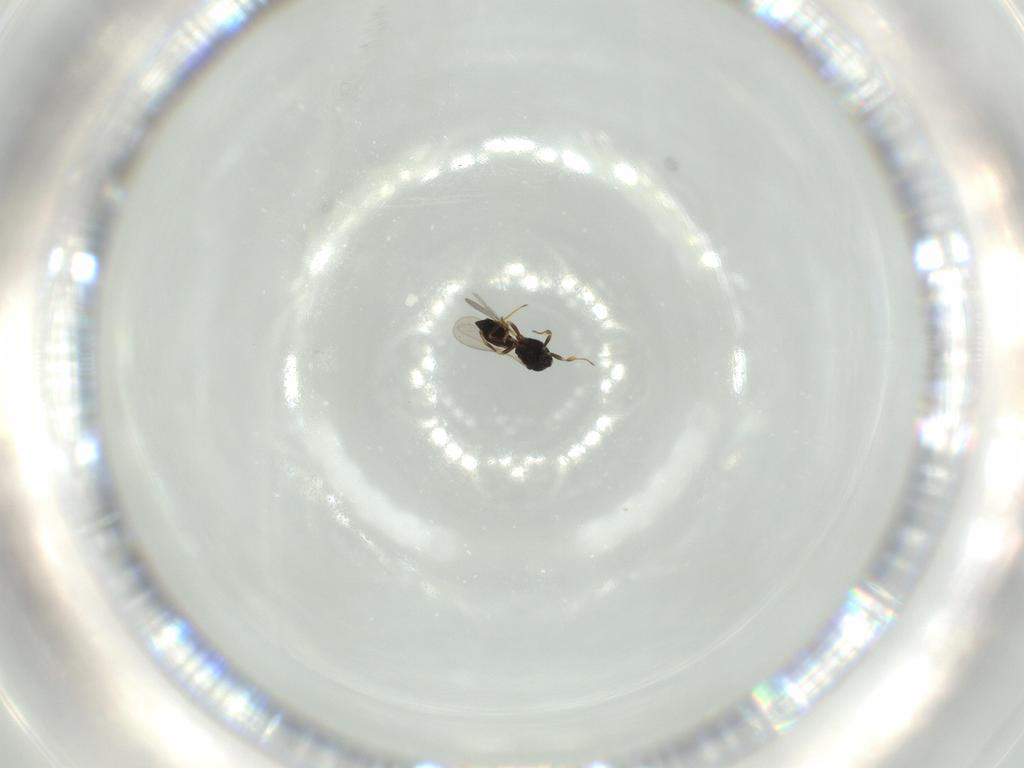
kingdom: Animalia
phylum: Arthropoda
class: Insecta
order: Hymenoptera
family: Scelionidae
